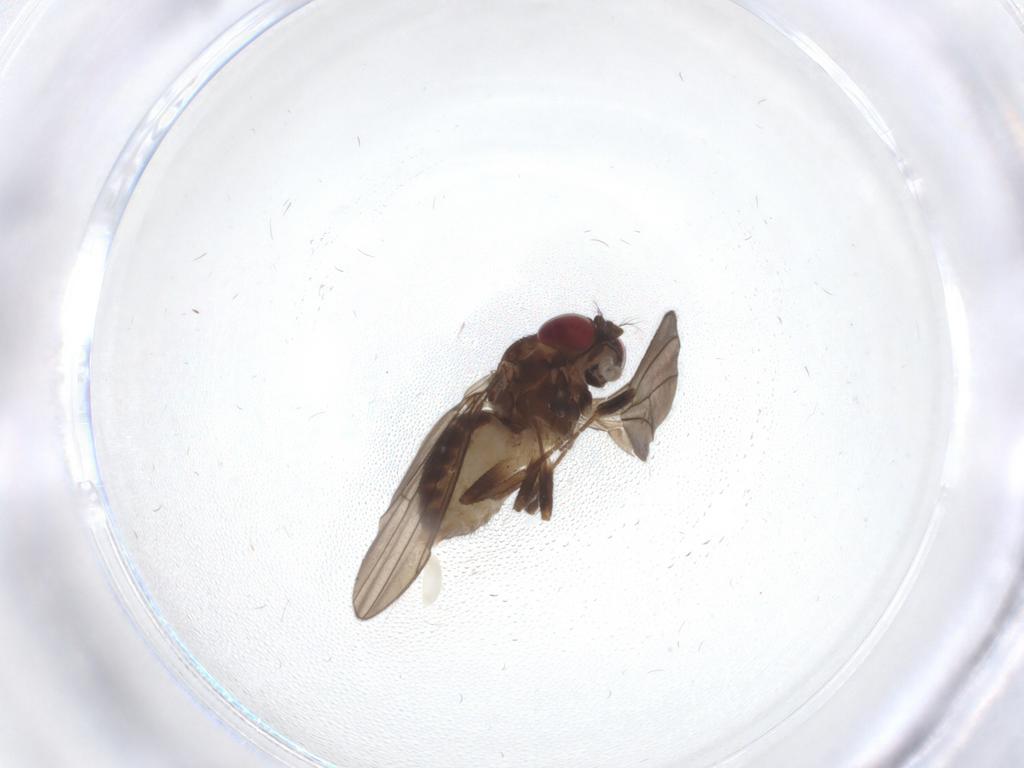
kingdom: Animalia
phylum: Arthropoda
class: Insecta
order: Diptera
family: Drosophilidae
